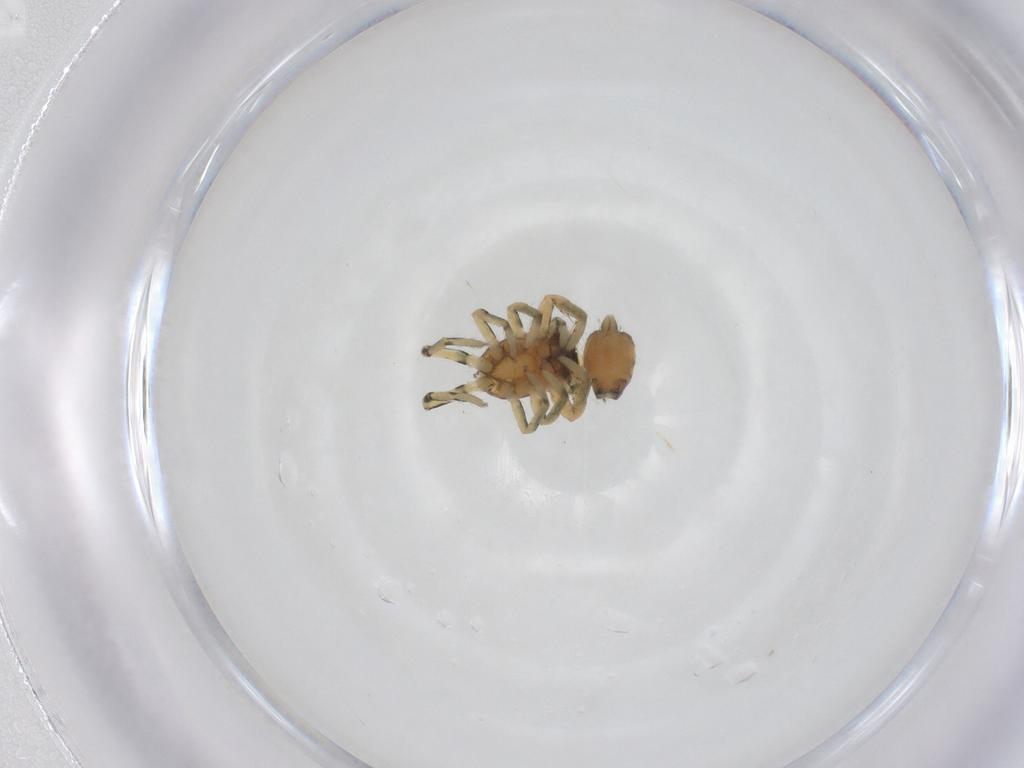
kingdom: Animalia
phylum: Arthropoda
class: Arachnida
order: Araneae
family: Salticidae
